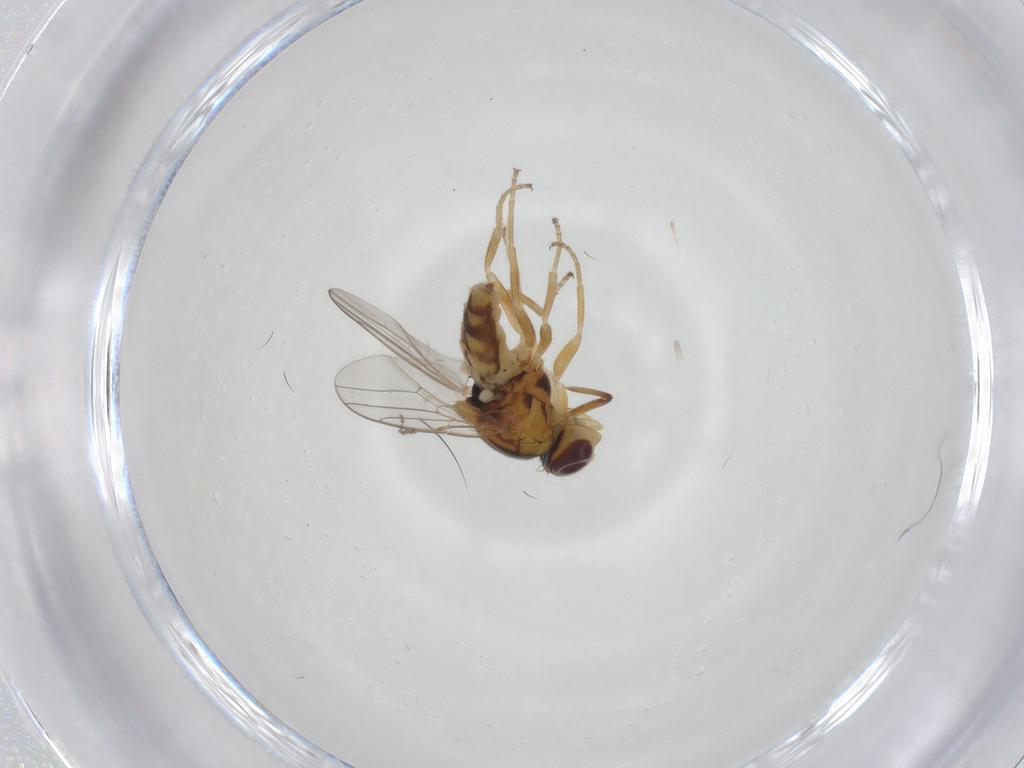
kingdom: Animalia
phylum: Arthropoda
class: Insecta
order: Diptera
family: Chloropidae
